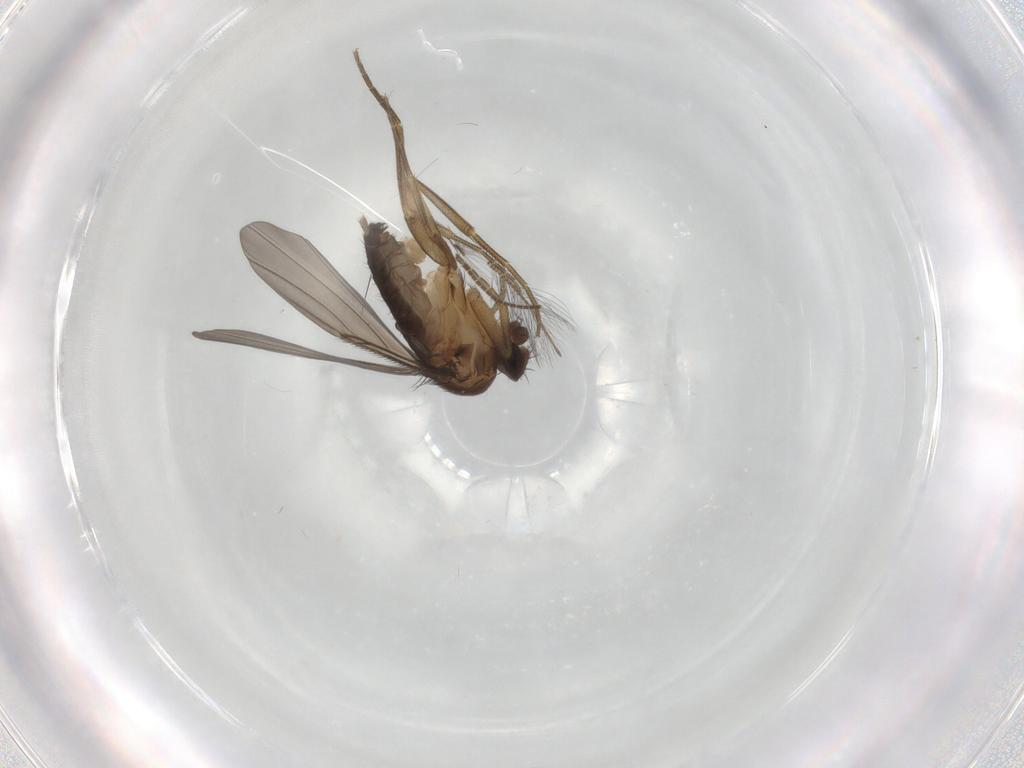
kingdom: Animalia
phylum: Arthropoda
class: Insecta
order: Diptera
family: Phoridae
